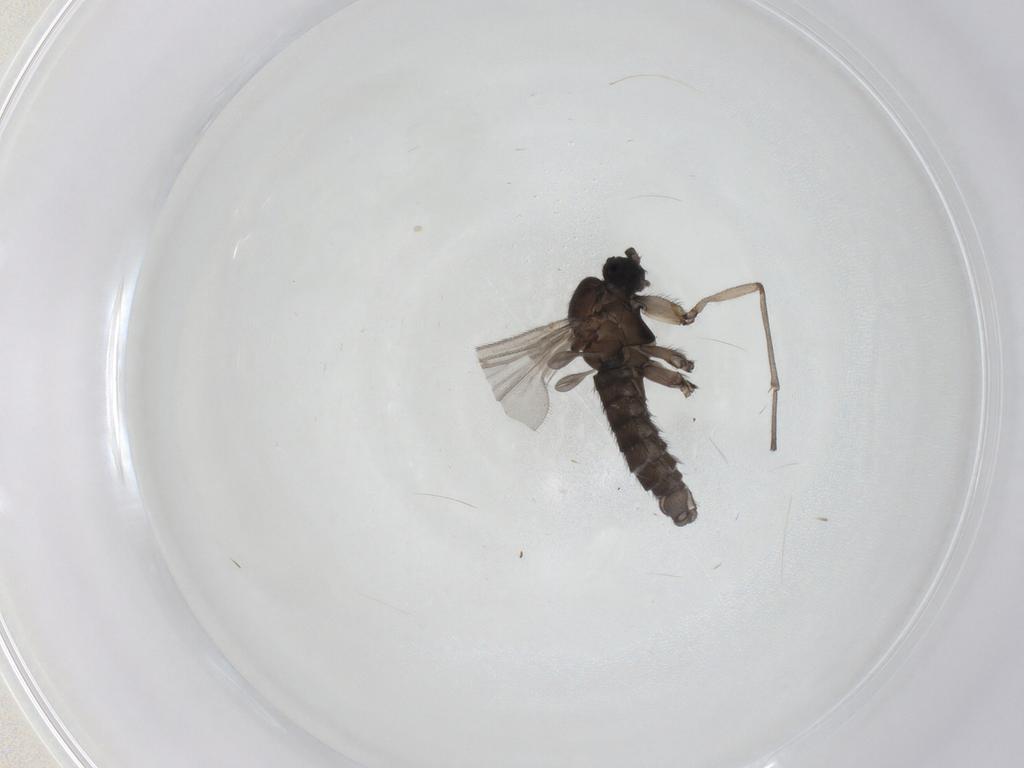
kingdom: Animalia
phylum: Arthropoda
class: Insecta
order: Diptera
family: Sciaridae
